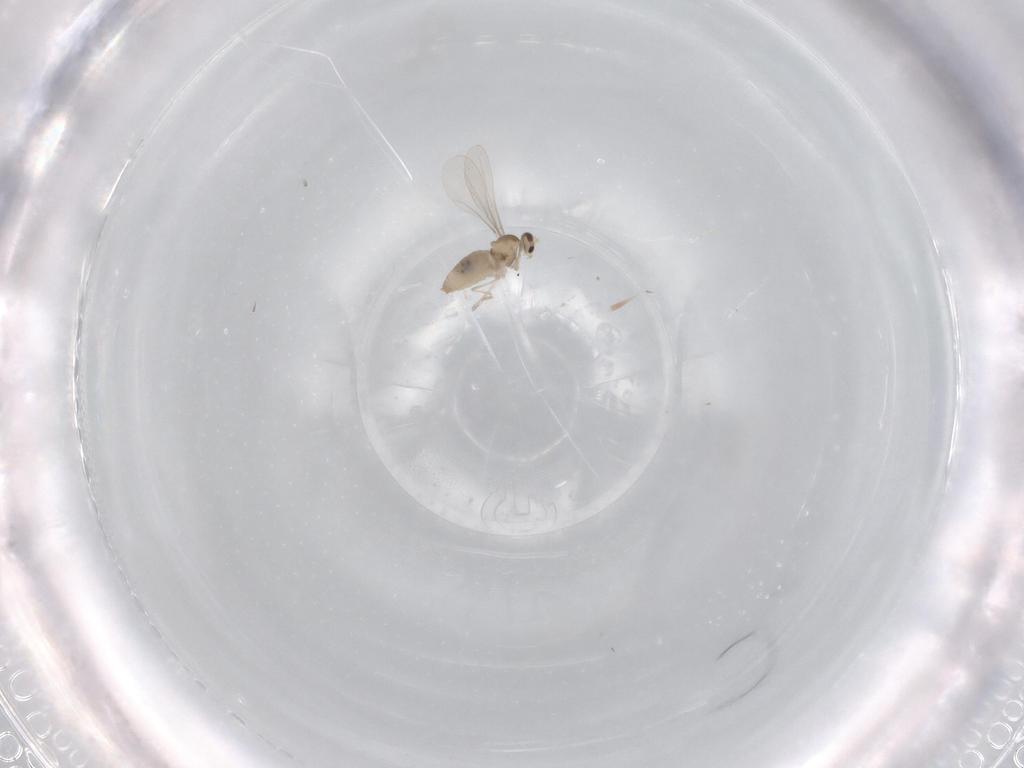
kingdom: Animalia
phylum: Arthropoda
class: Insecta
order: Diptera
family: Cecidomyiidae
